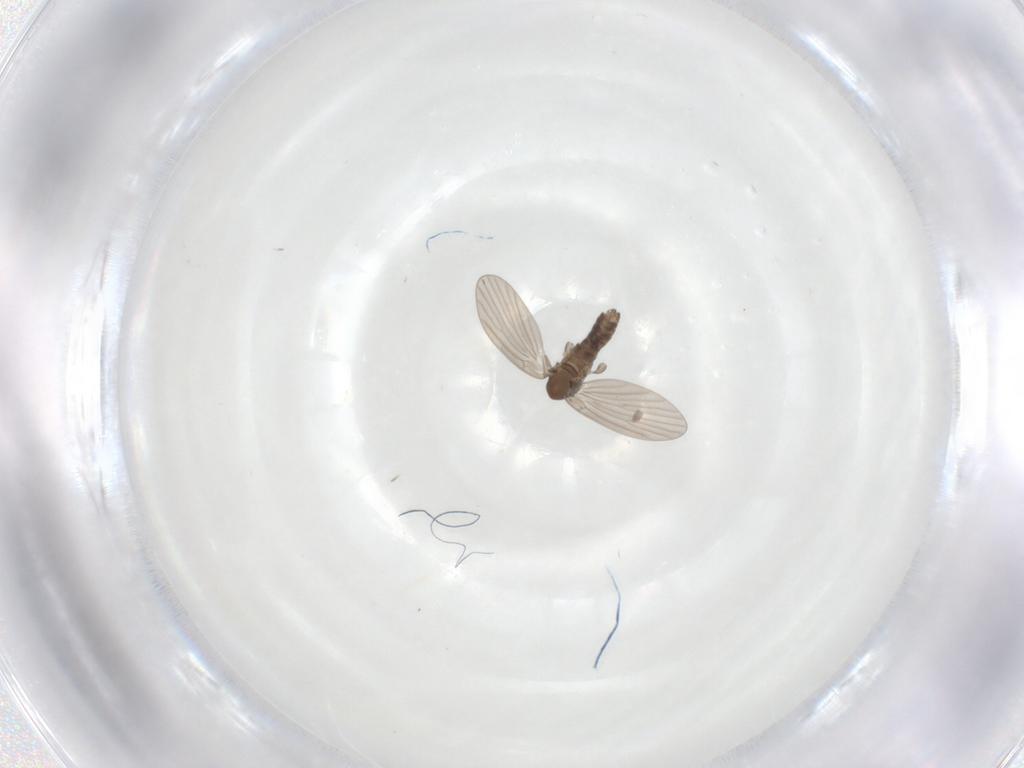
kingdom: Animalia
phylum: Arthropoda
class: Insecta
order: Diptera
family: Psychodidae
